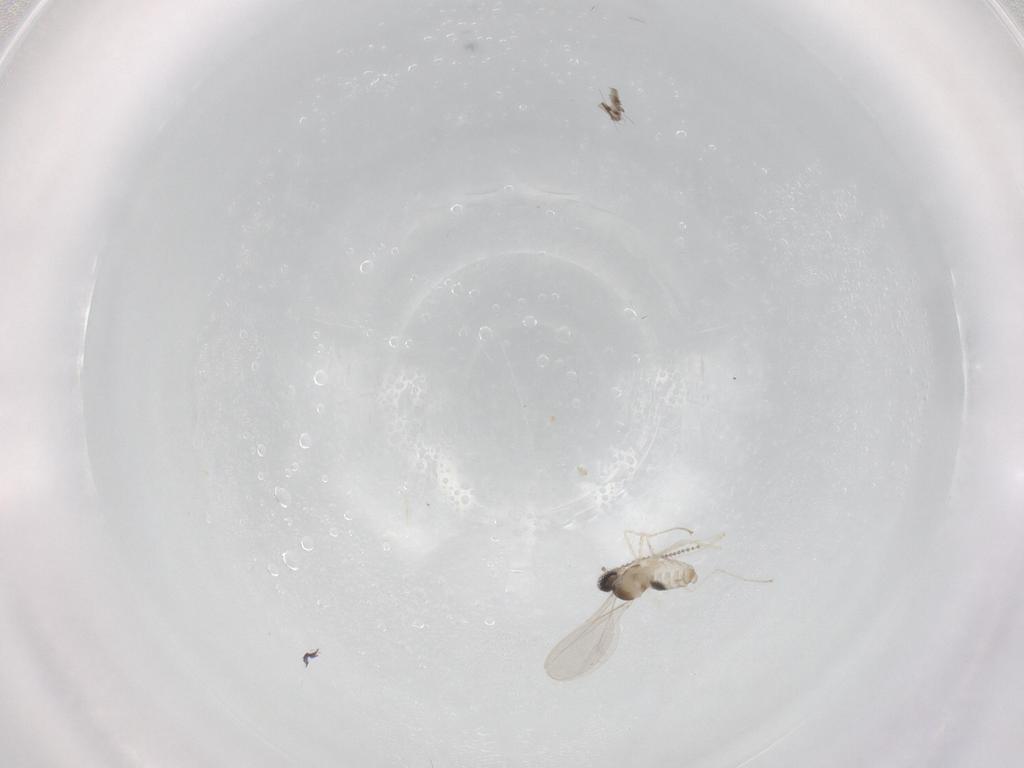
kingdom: Animalia
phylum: Arthropoda
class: Insecta
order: Diptera
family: Cecidomyiidae
